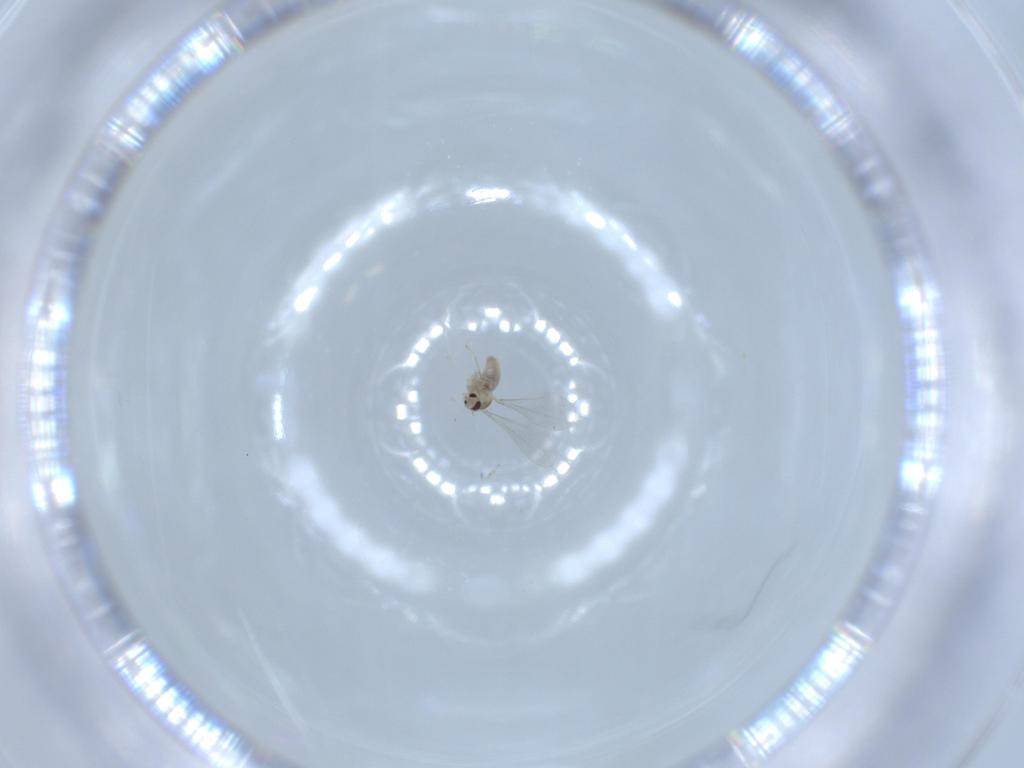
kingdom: Animalia
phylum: Arthropoda
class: Insecta
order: Diptera
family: Cecidomyiidae
